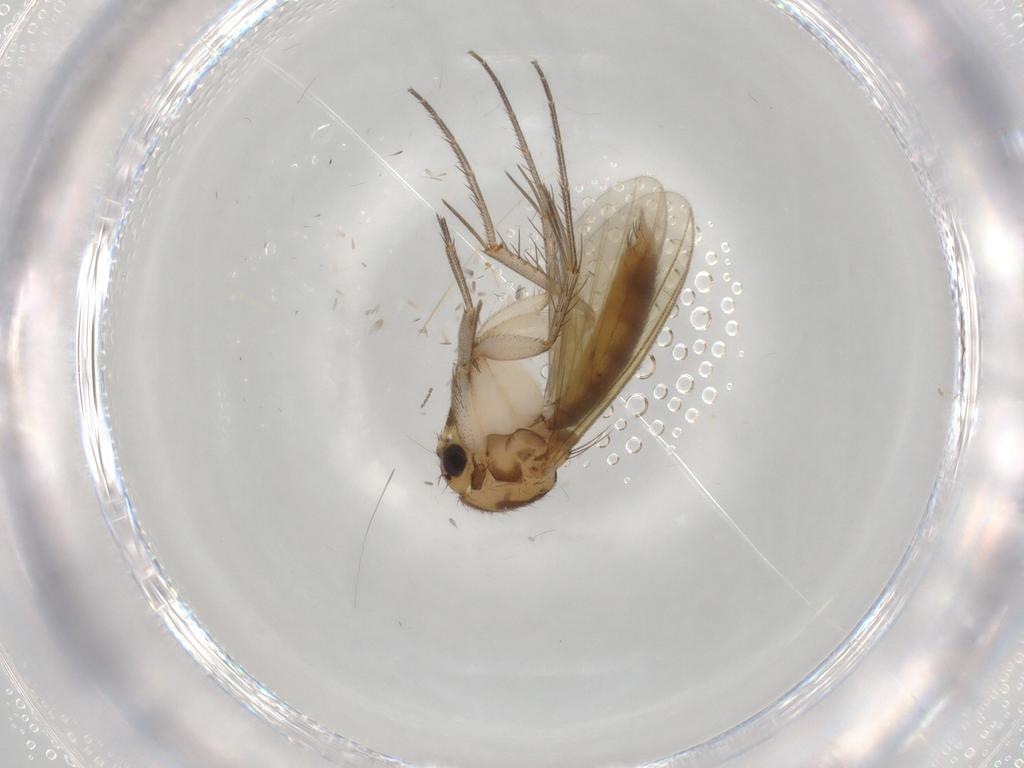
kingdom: Animalia
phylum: Arthropoda
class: Insecta
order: Diptera
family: Mycetophilidae
